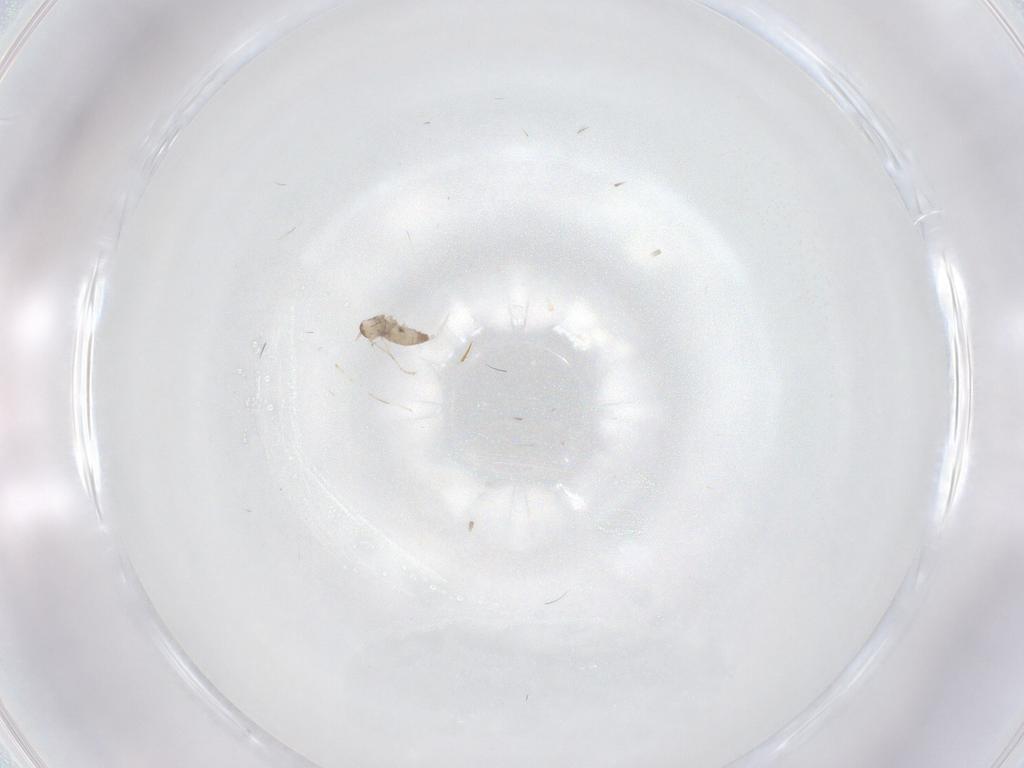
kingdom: Animalia
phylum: Arthropoda
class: Insecta
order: Diptera
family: Cecidomyiidae
